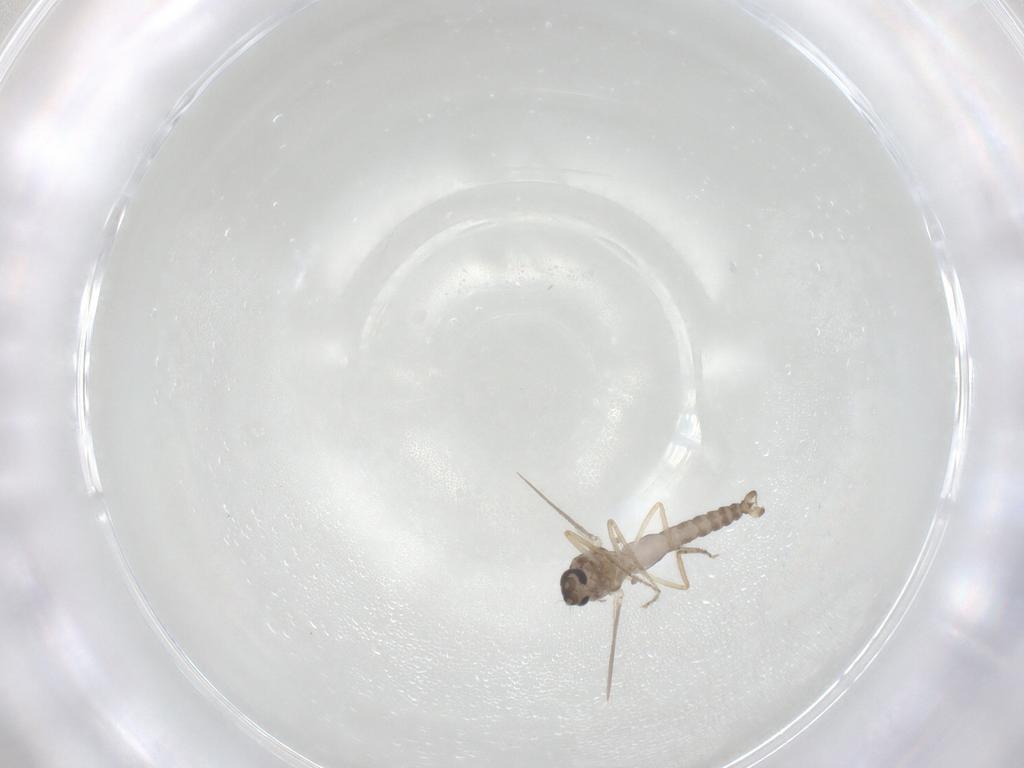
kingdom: Animalia
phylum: Arthropoda
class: Insecta
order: Diptera
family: Ceratopogonidae
